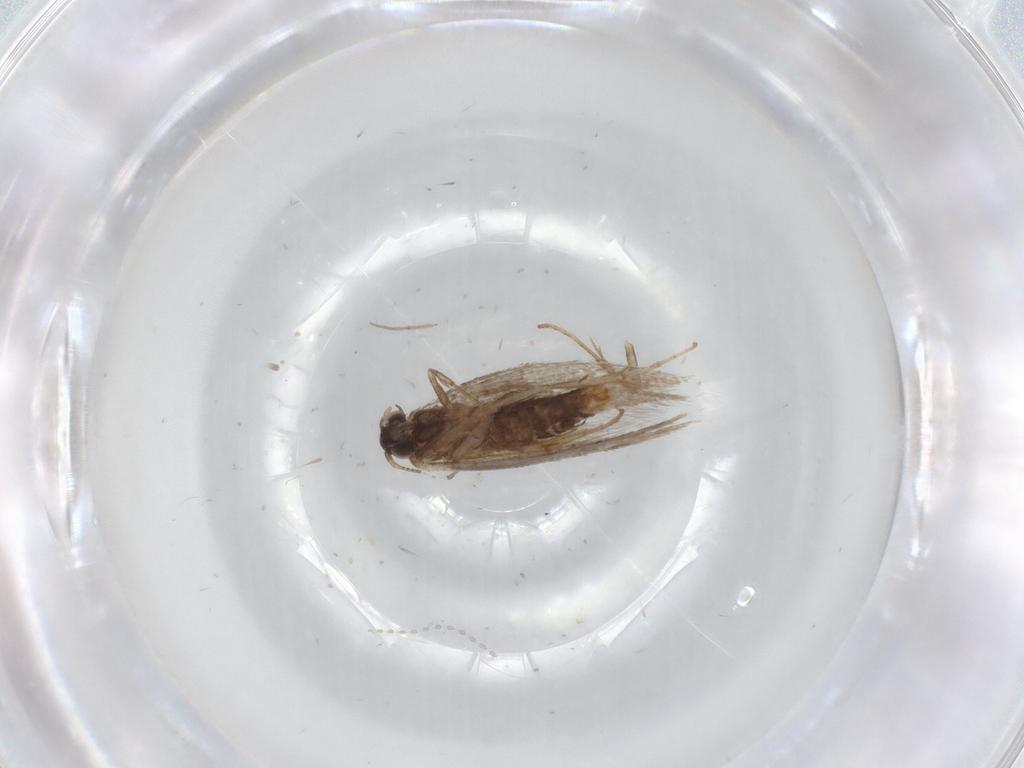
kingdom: Animalia
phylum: Arthropoda
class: Insecta
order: Lepidoptera
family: Nepticulidae
